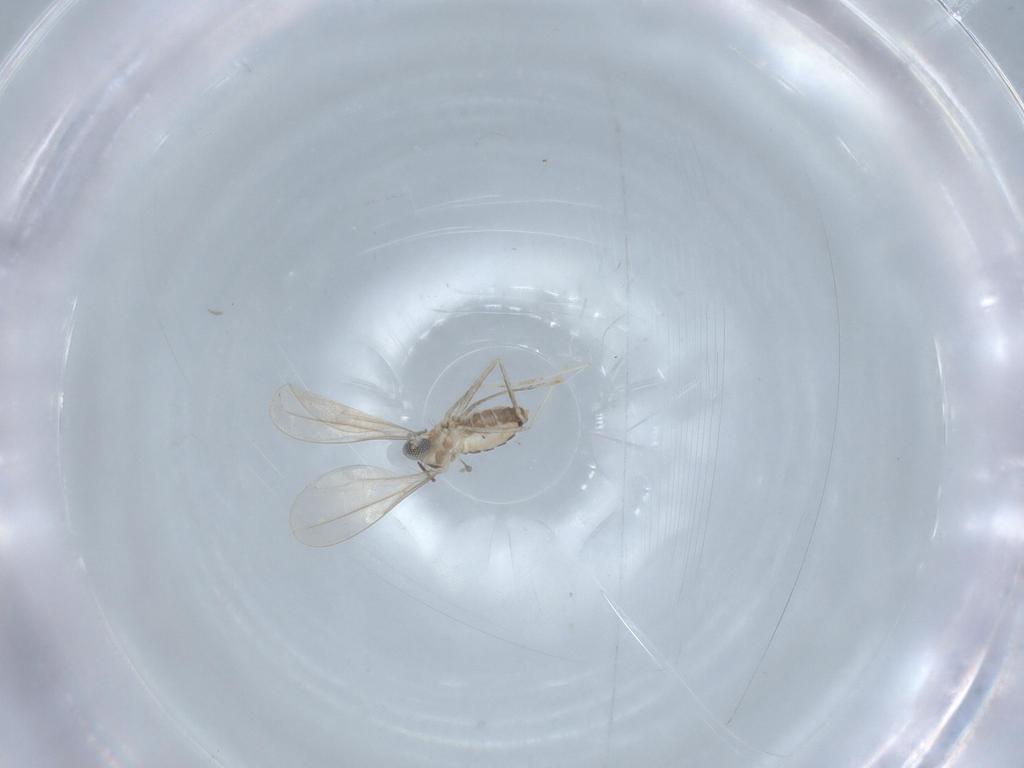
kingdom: Animalia
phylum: Arthropoda
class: Insecta
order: Diptera
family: Cecidomyiidae
